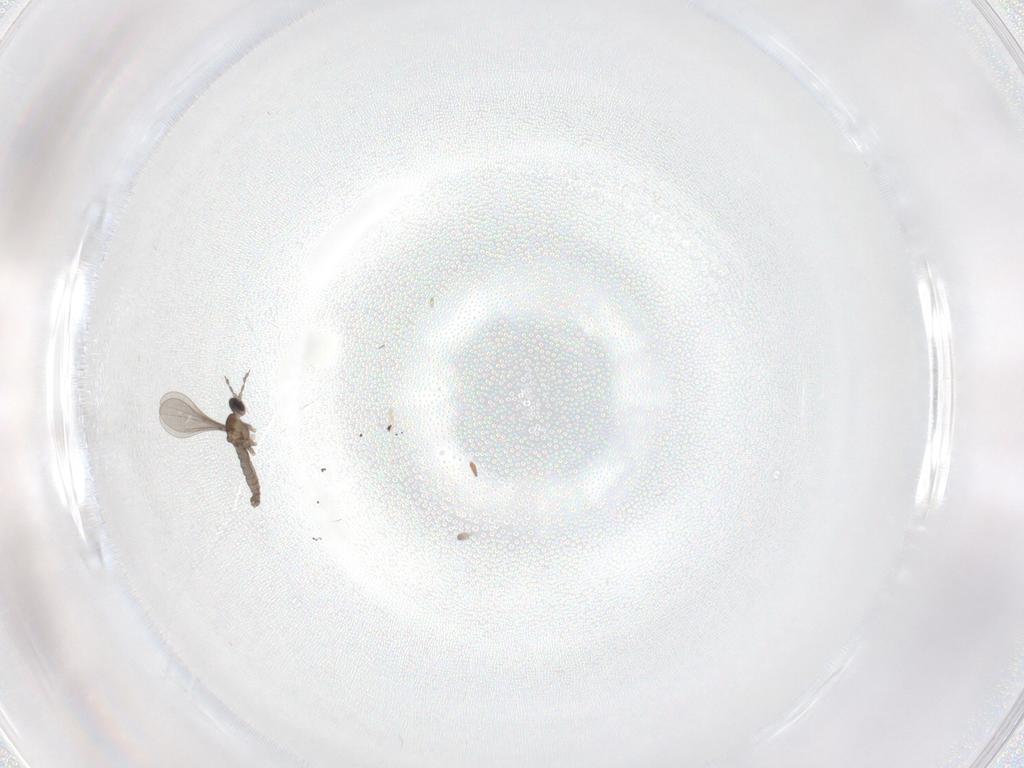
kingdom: Animalia
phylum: Arthropoda
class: Insecta
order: Diptera
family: Cecidomyiidae
